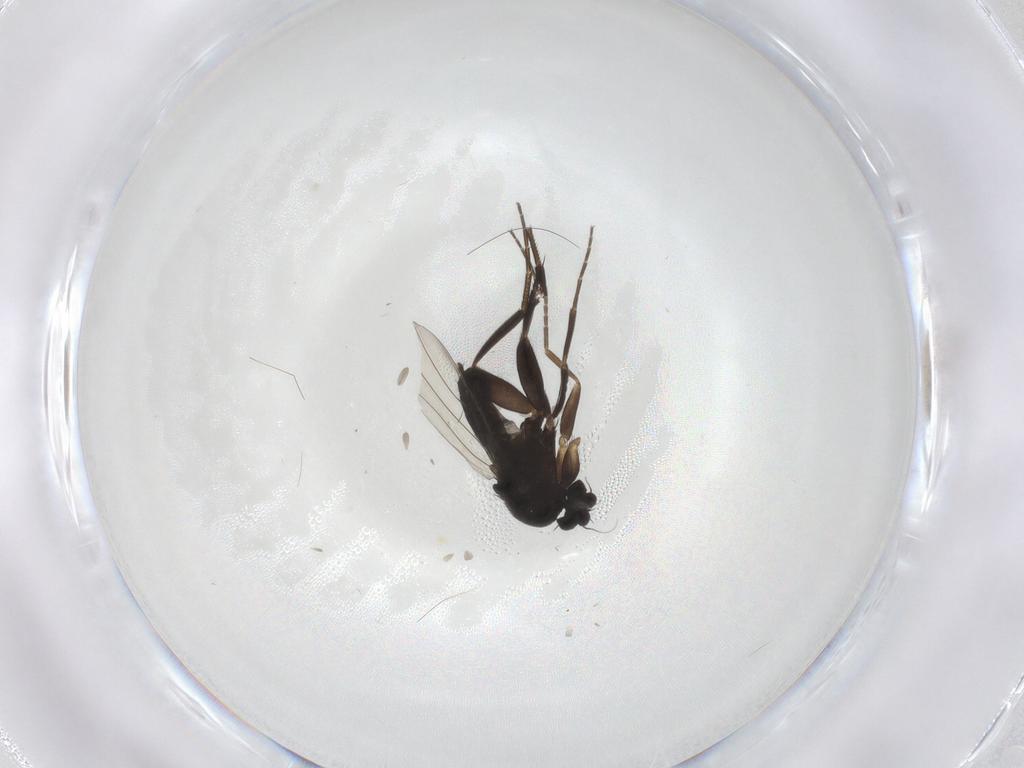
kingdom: Animalia
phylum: Arthropoda
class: Insecta
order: Diptera
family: Phoridae
